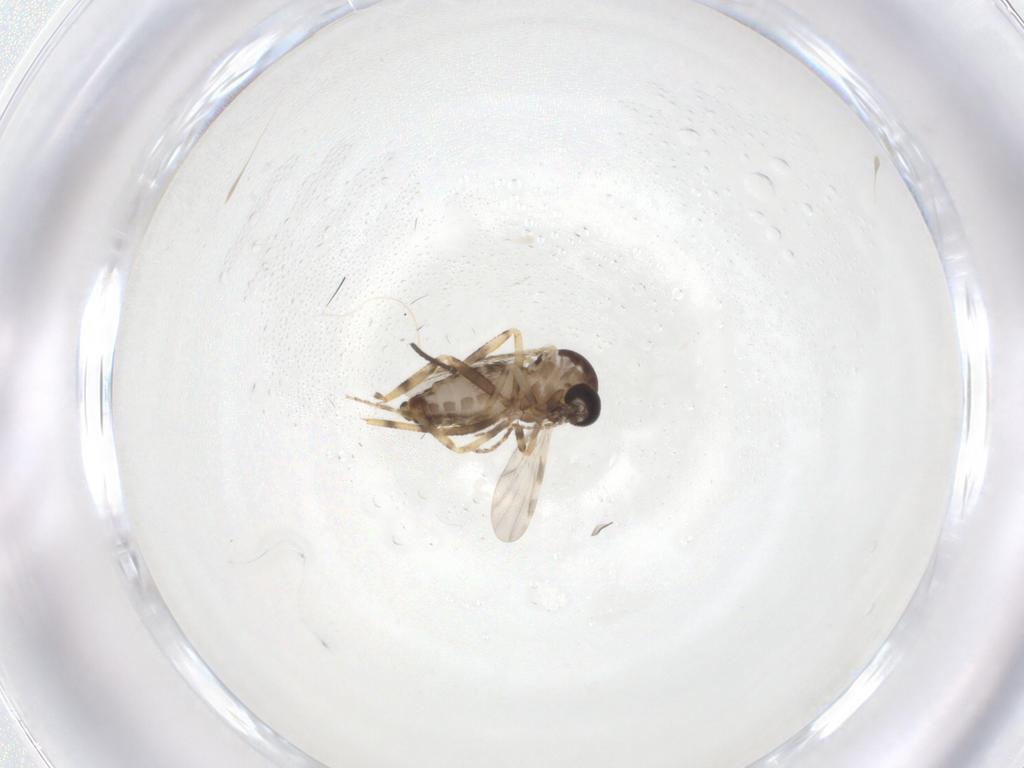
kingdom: Animalia
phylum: Arthropoda
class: Insecta
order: Diptera
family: Ceratopogonidae
